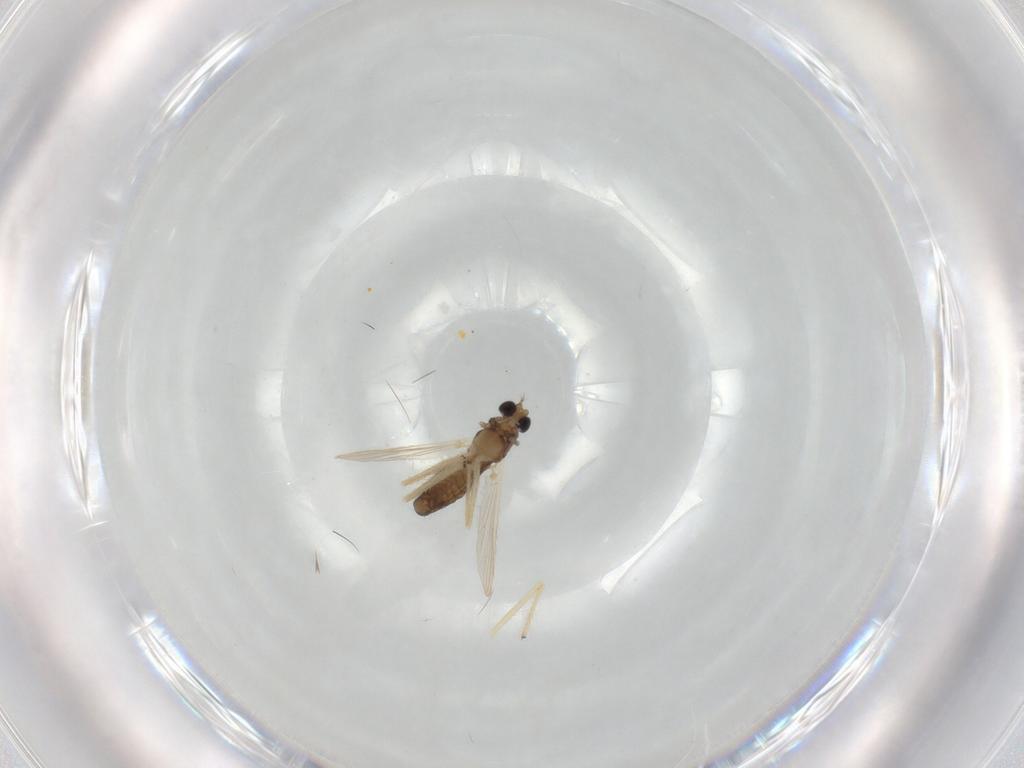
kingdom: Animalia
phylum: Arthropoda
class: Insecta
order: Diptera
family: Chironomidae
